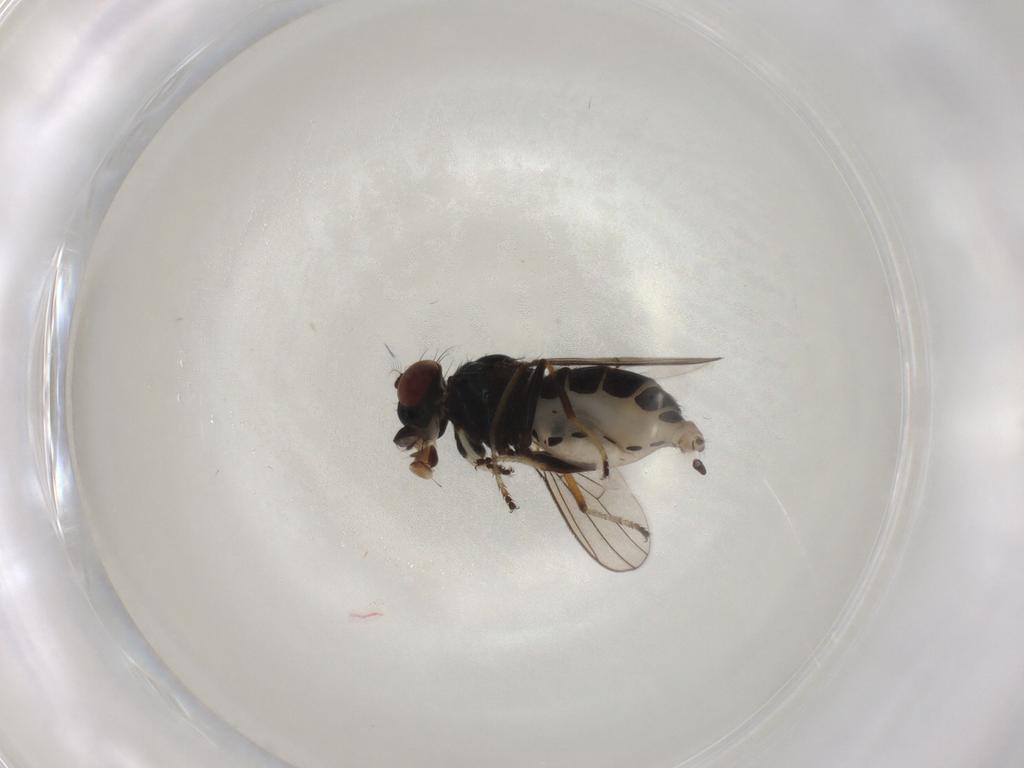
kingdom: Animalia
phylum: Arthropoda
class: Insecta
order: Diptera
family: Ephydridae
